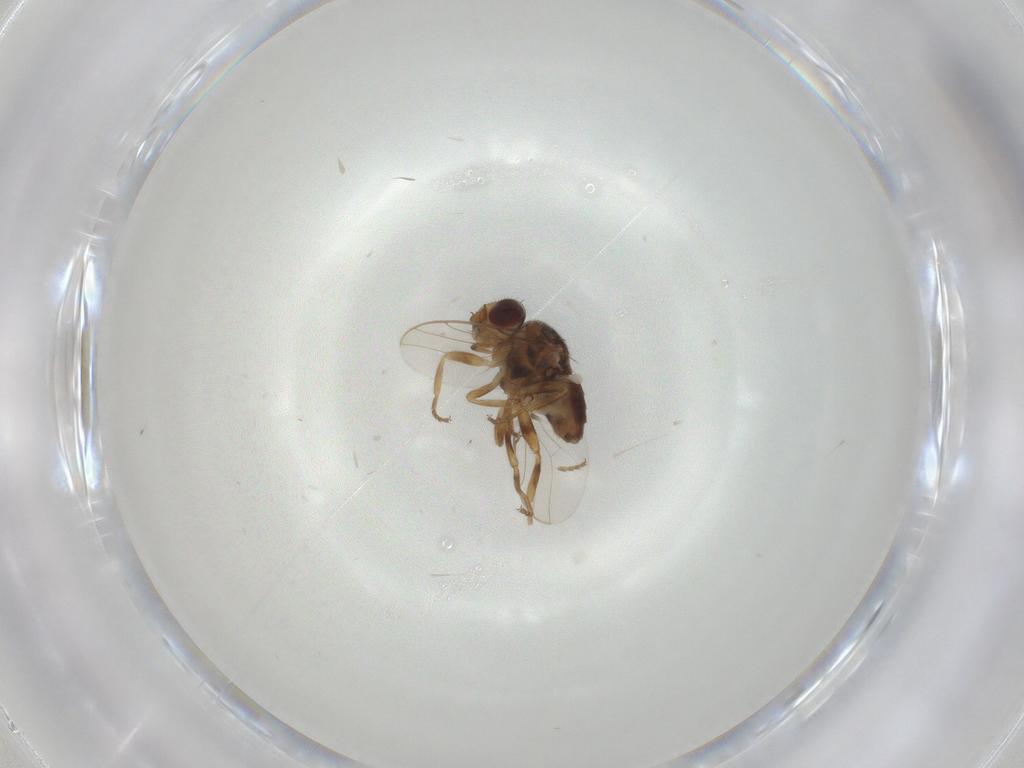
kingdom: Animalia
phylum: Arthropoda
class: Insecta
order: Diptera
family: Chloropidae
